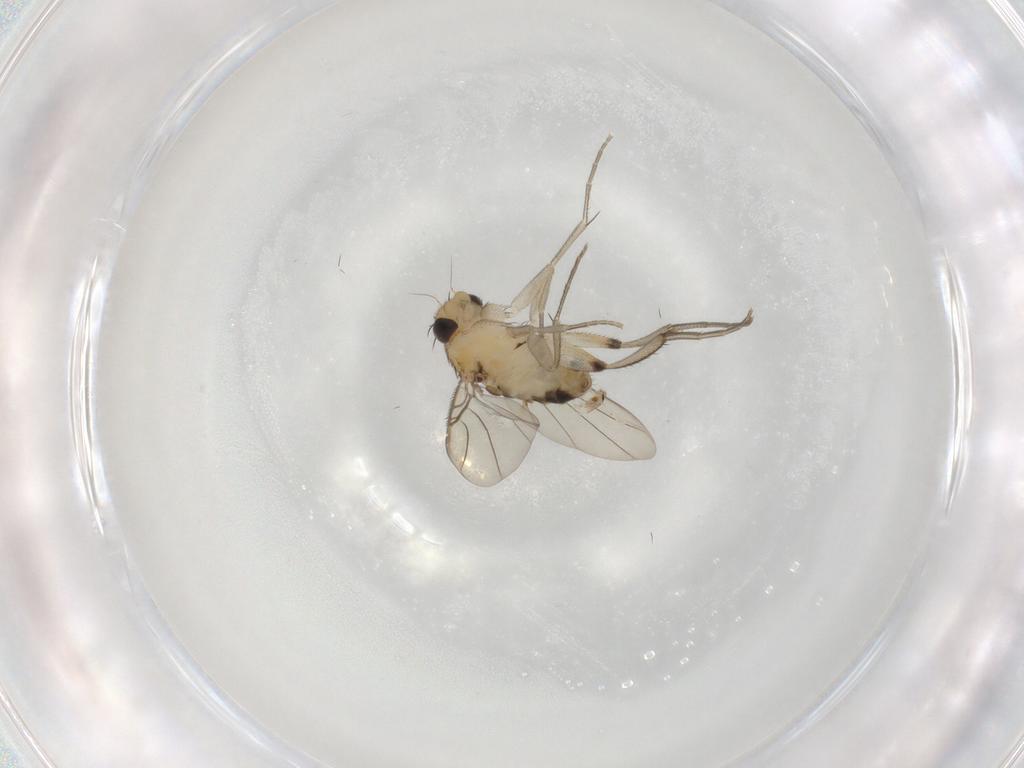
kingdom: Animalia
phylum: Arthropoda
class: Insecta
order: Diptera
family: Phoridae
